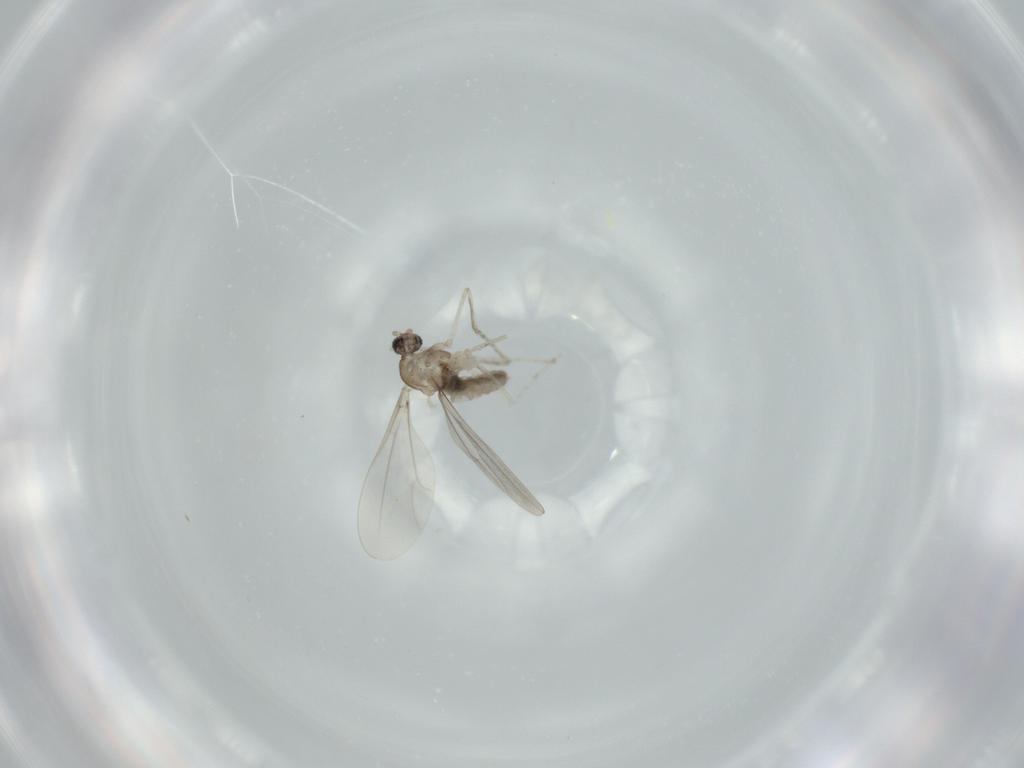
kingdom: Animalia
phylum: Arthropoda
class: Insecta
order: Diptera
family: Cecidomyiidae
